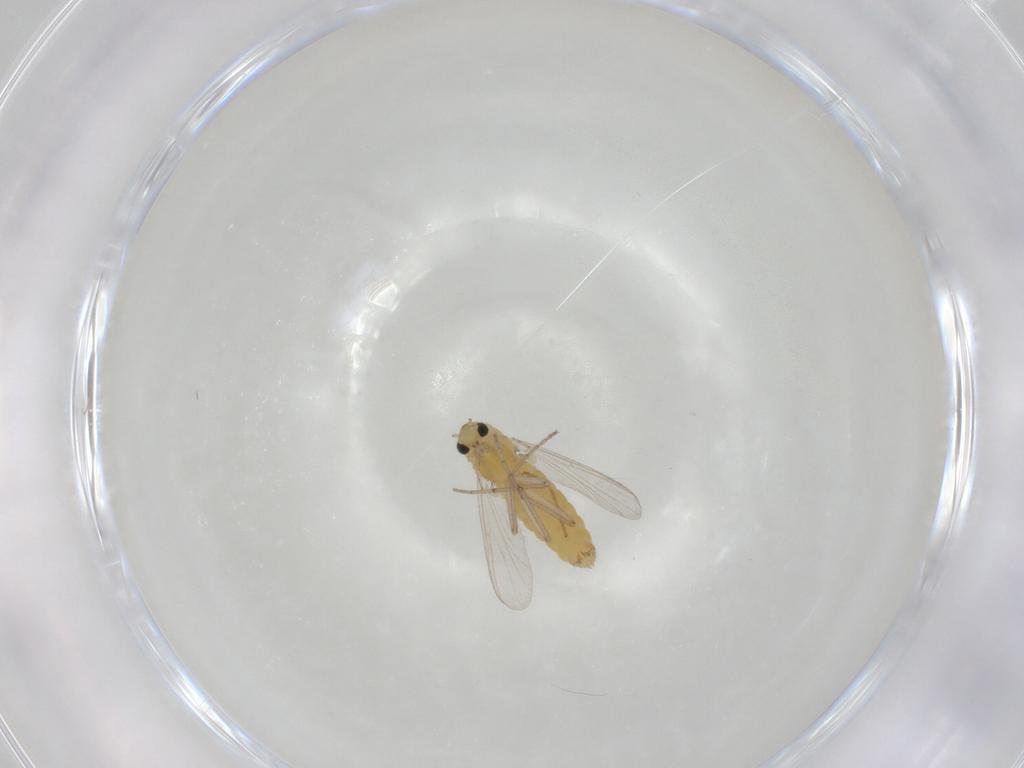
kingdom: Animalia
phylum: Arthropoda
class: Insecta
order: Diptera
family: Chironomidae
